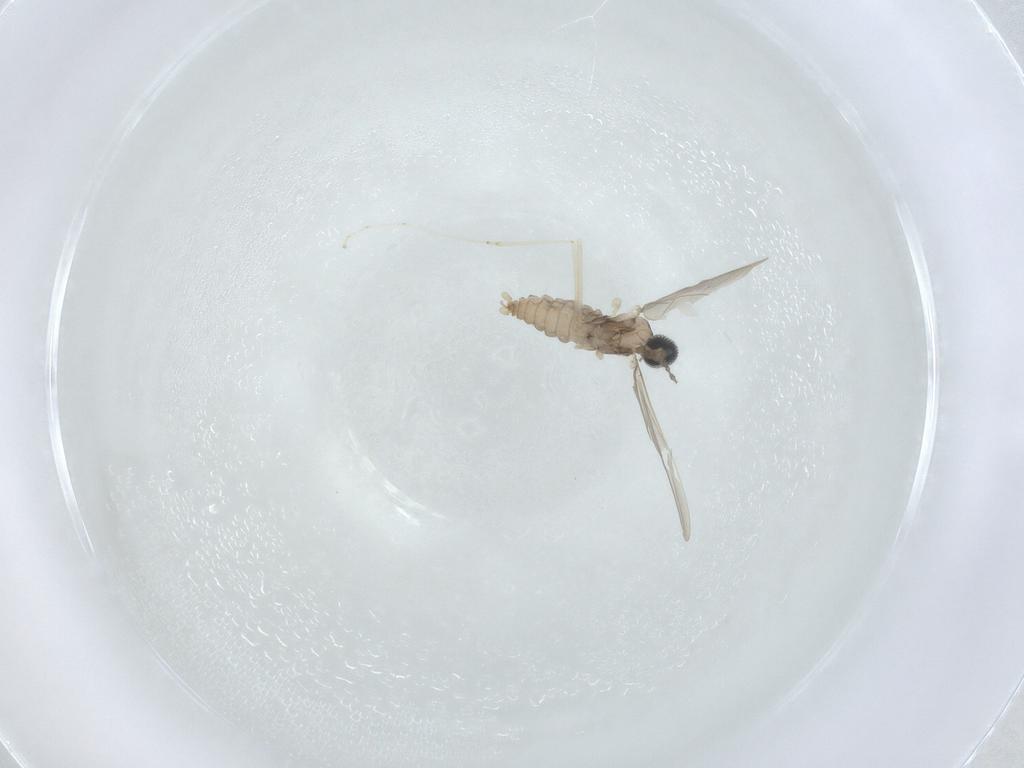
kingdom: Animalia
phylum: Arthropoda
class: Insecta
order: Diptera
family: Cecidomyiidae
